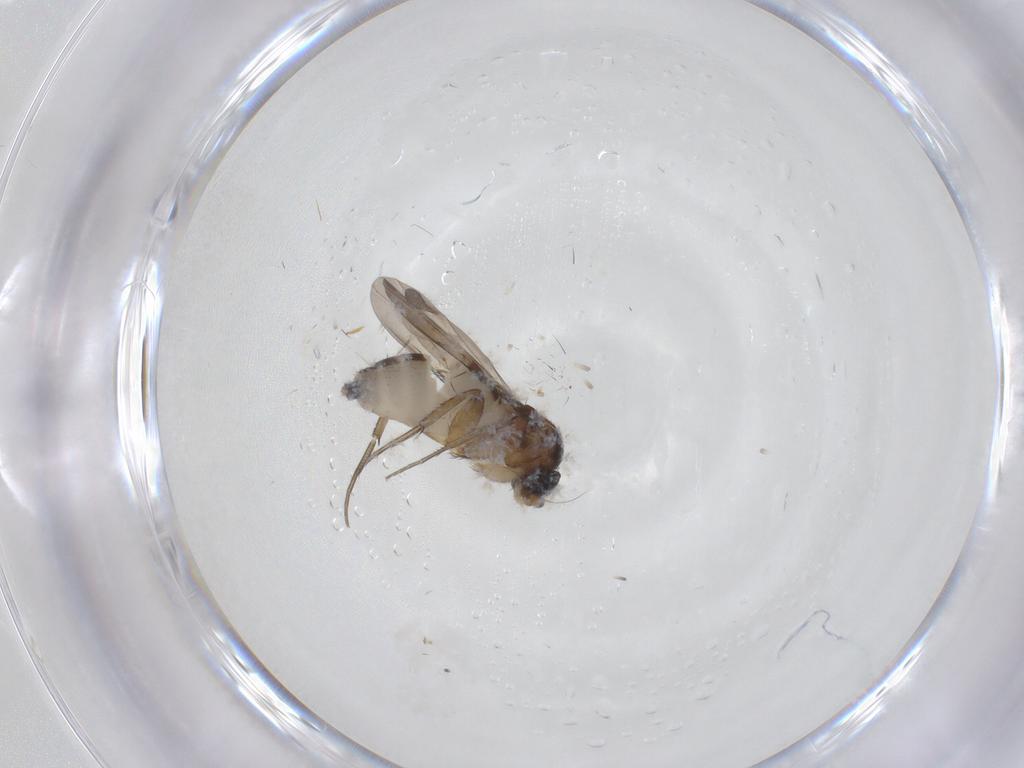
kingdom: Animalia
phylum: Arthropoda
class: Insecta
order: Diptera
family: Phoridae
